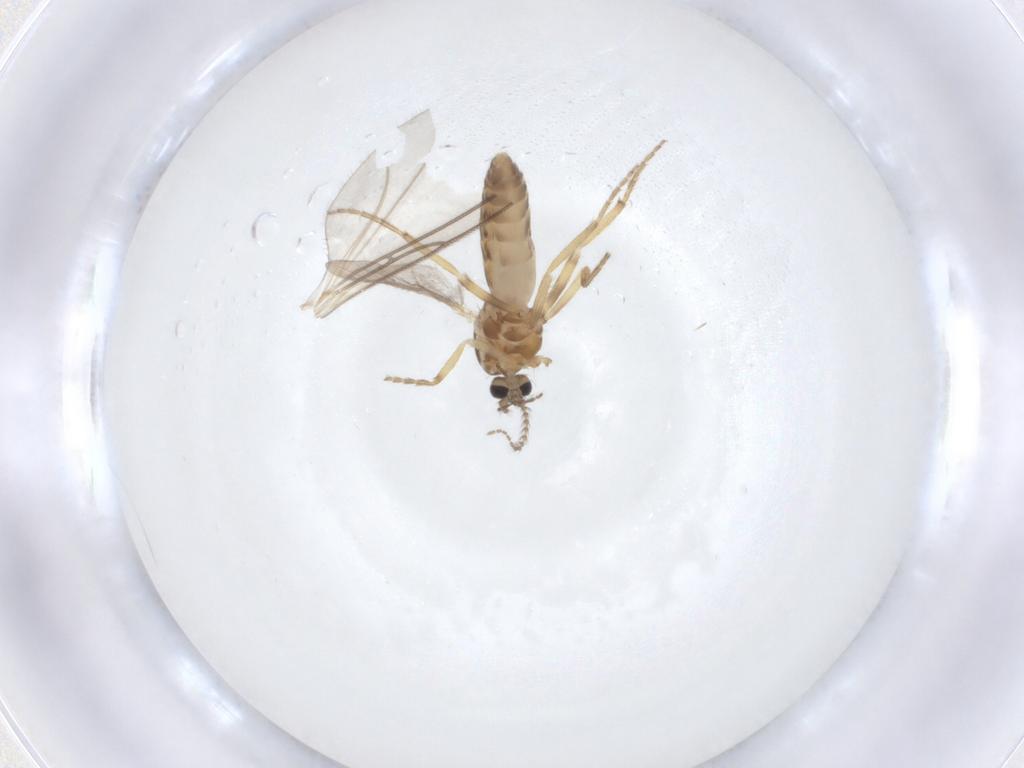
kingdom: Animalia
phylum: Arthropoda
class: Insecta
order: Diptera
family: Ceratopogonidae
